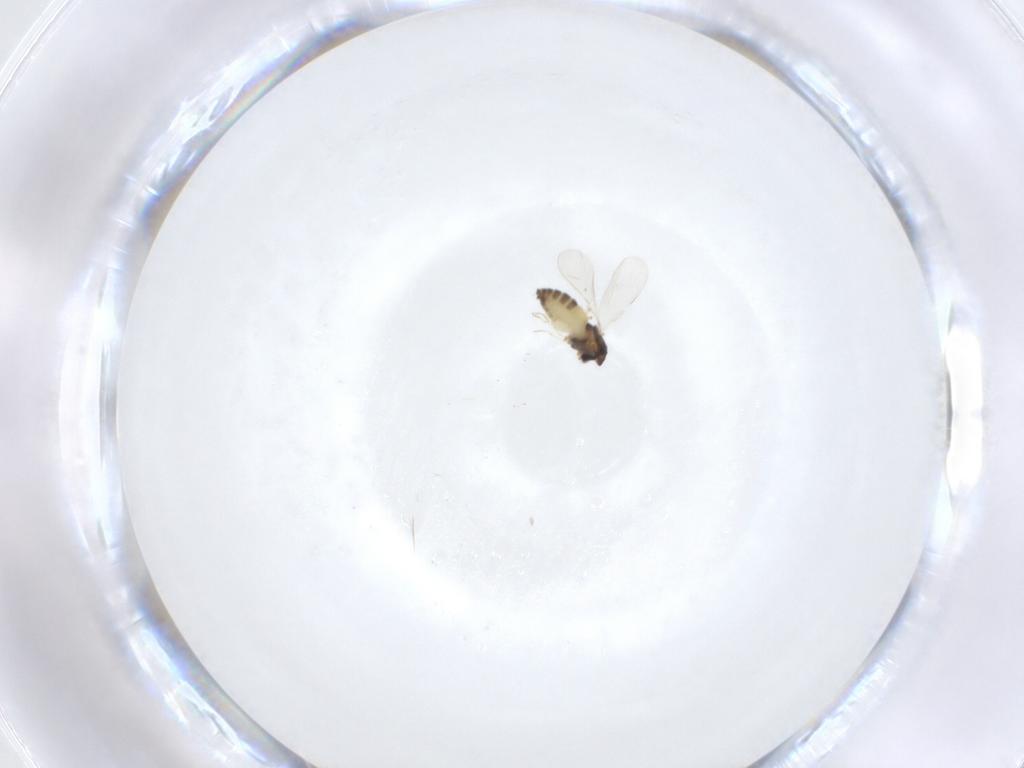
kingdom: Animalia
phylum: Arthropoda
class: Insecta
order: Diptera
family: Chironomidae
